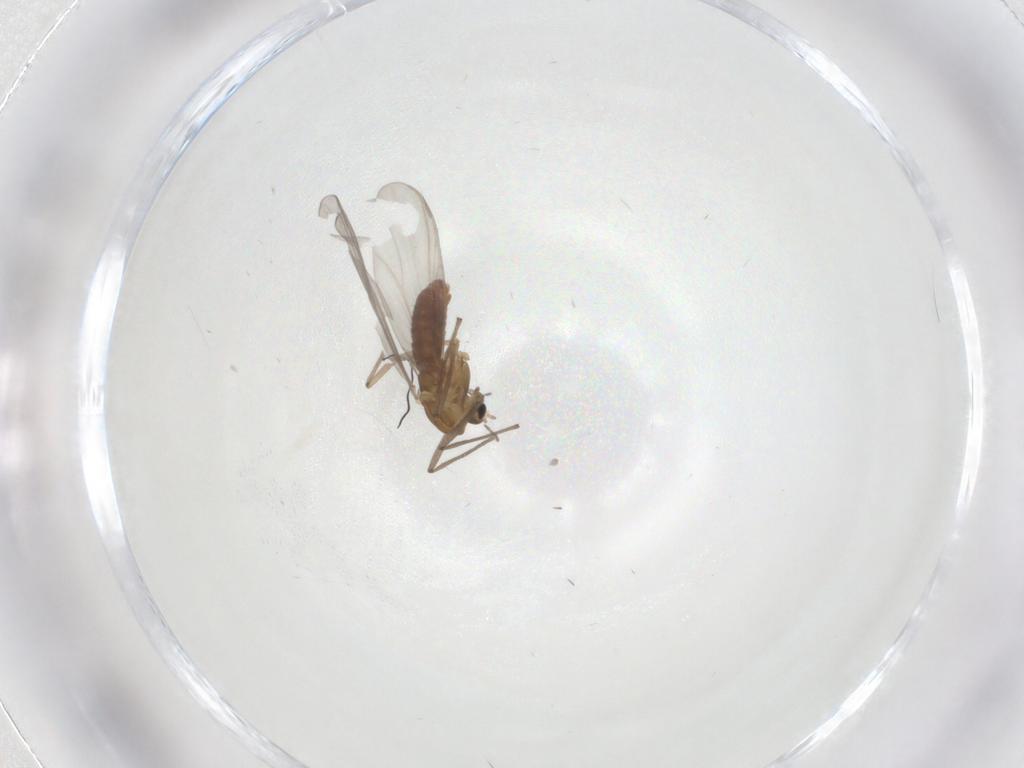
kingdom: Animalia
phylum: Arthropoda
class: Insecta
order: Diptera
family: Chironomidae
